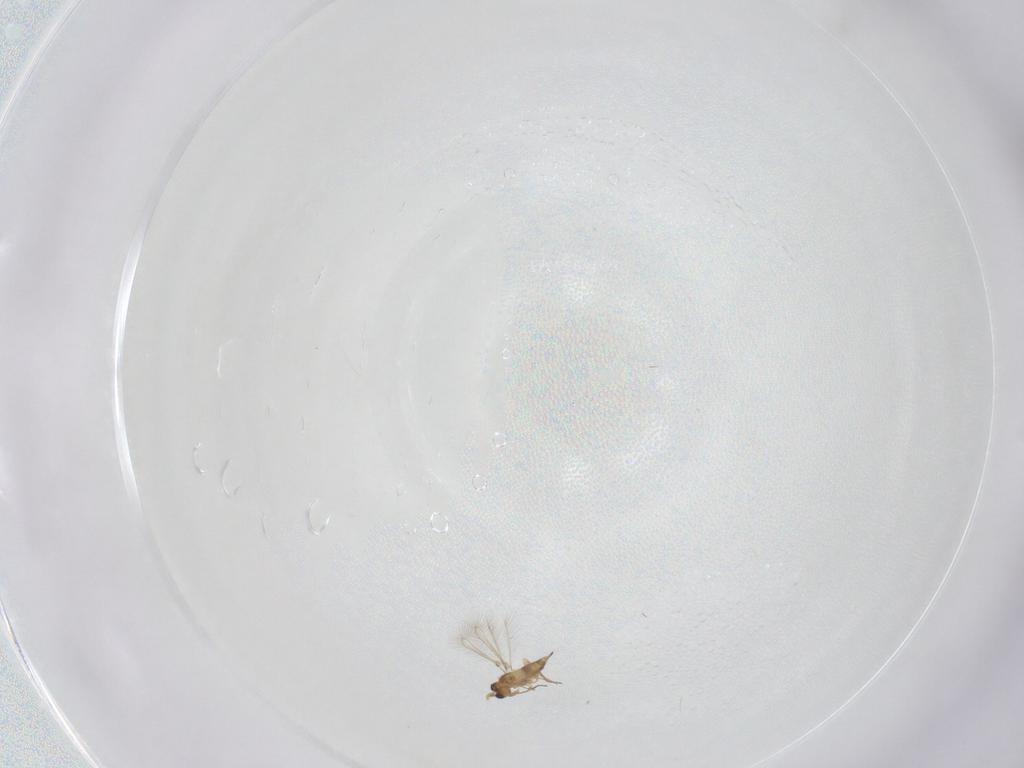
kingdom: Animalia
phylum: Arthropoda
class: Insecta
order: Hymenoptera
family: Mymaridae
